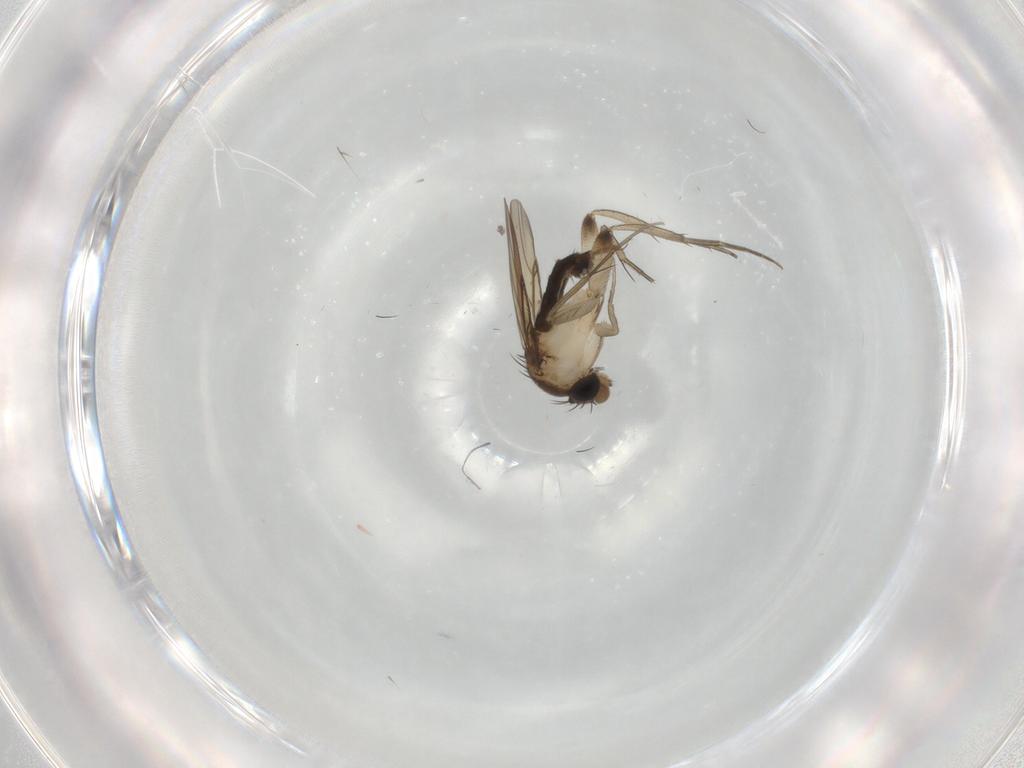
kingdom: Animalia
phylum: Arthropoda
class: Insecta
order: Diptera
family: Phoridae
